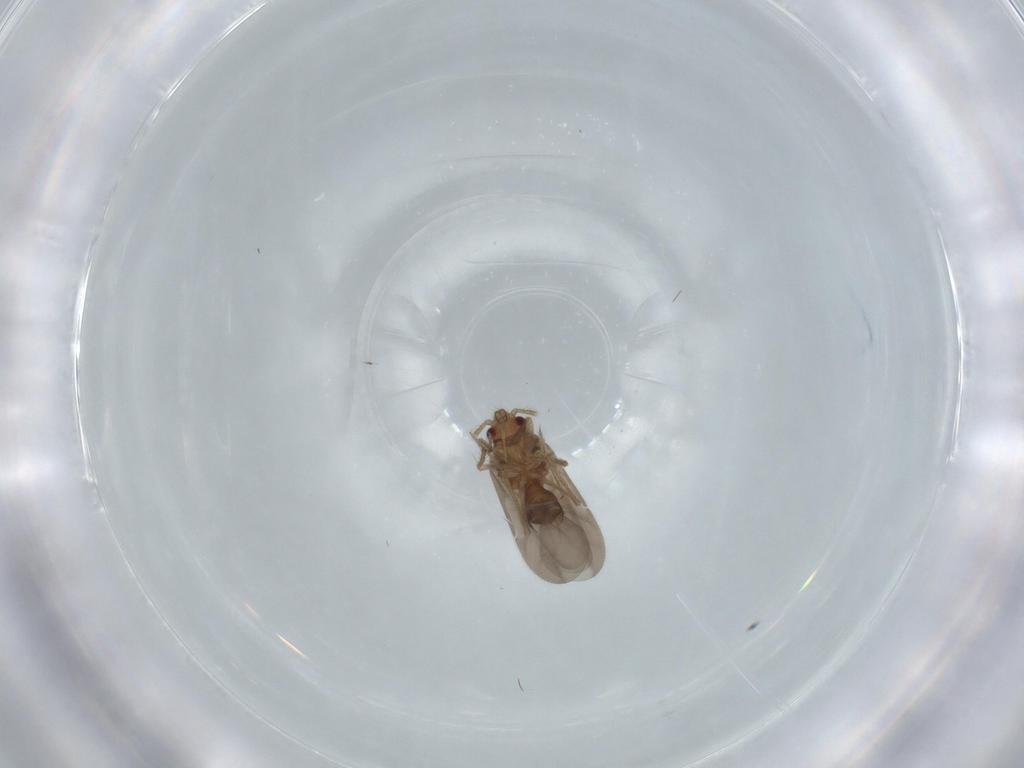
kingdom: Animalia
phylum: Arthropoda
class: Insecta
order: Hemiptera
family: Ceratocombidae
